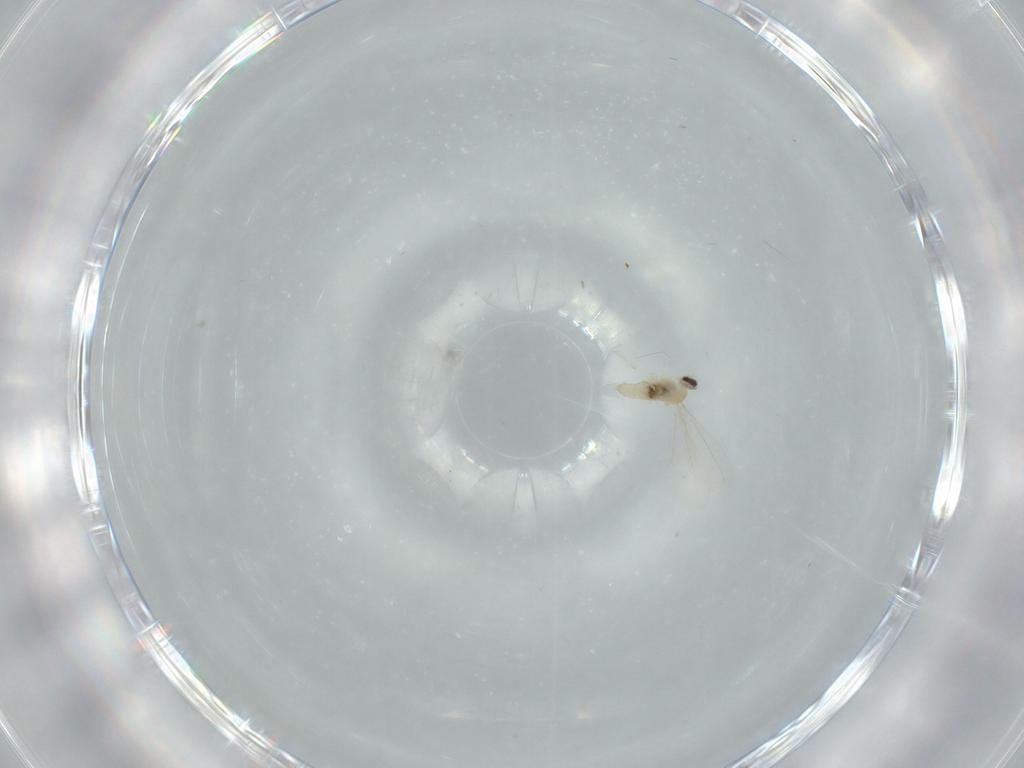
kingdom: Animalia
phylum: Arthropoda
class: Insecta
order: Diptera
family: Cecidomyiidae
